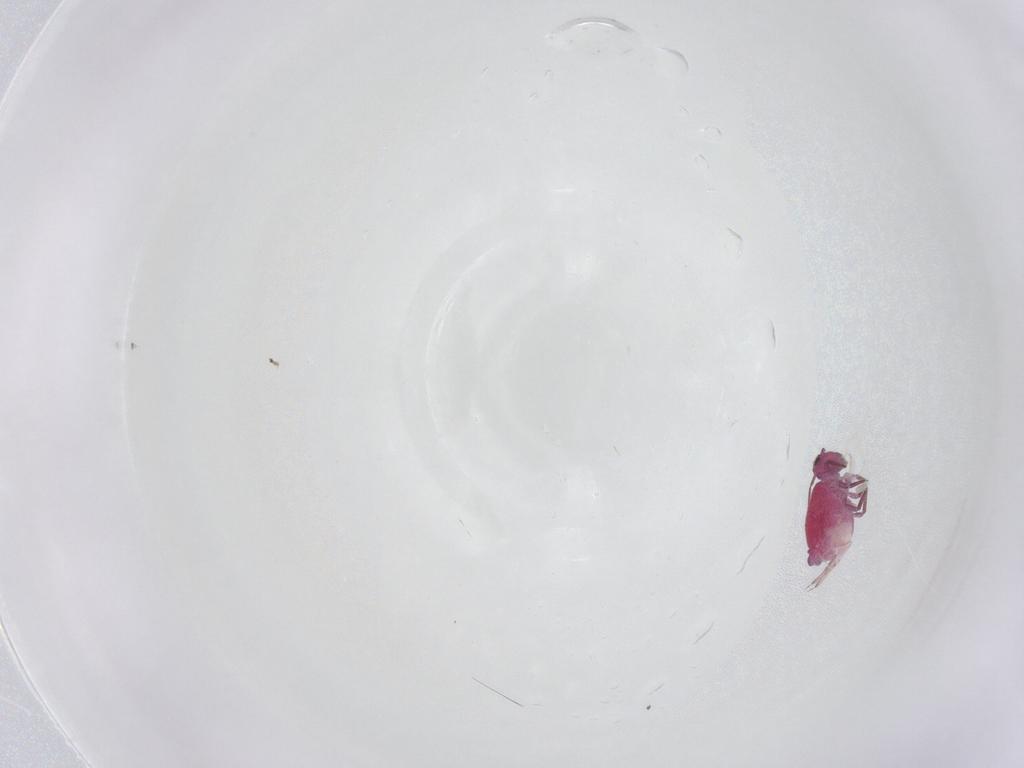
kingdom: Animalia
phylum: Arthropoda
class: Collembola
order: Symphypleona
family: Sminthuridae
